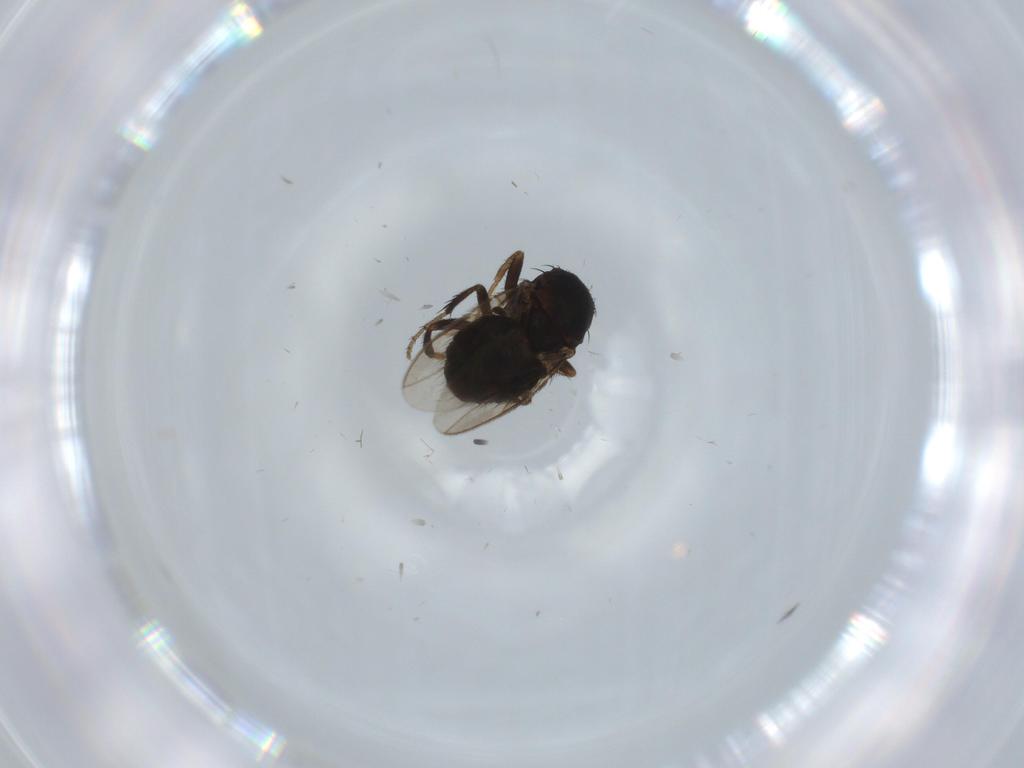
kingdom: Animalia
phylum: Arthropoda
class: Insecta
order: Diptera
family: Sphaeroceridae
